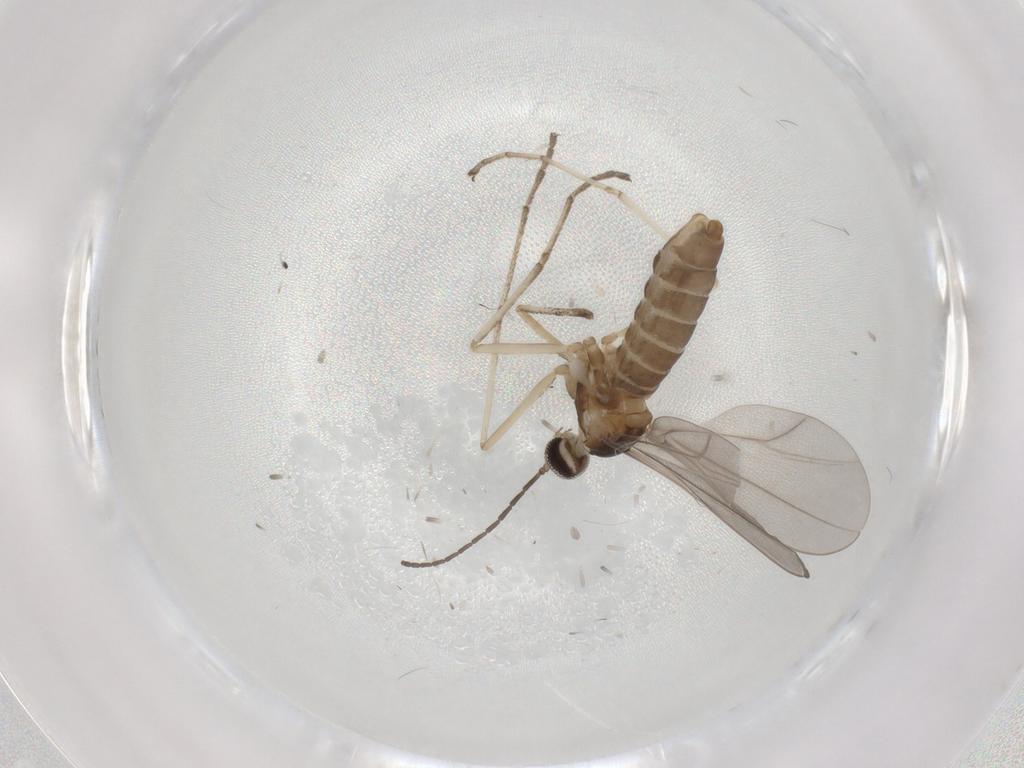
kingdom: Animalia
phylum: Arthropoda
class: Insecta
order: Diptera
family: Cecidomyiidae
